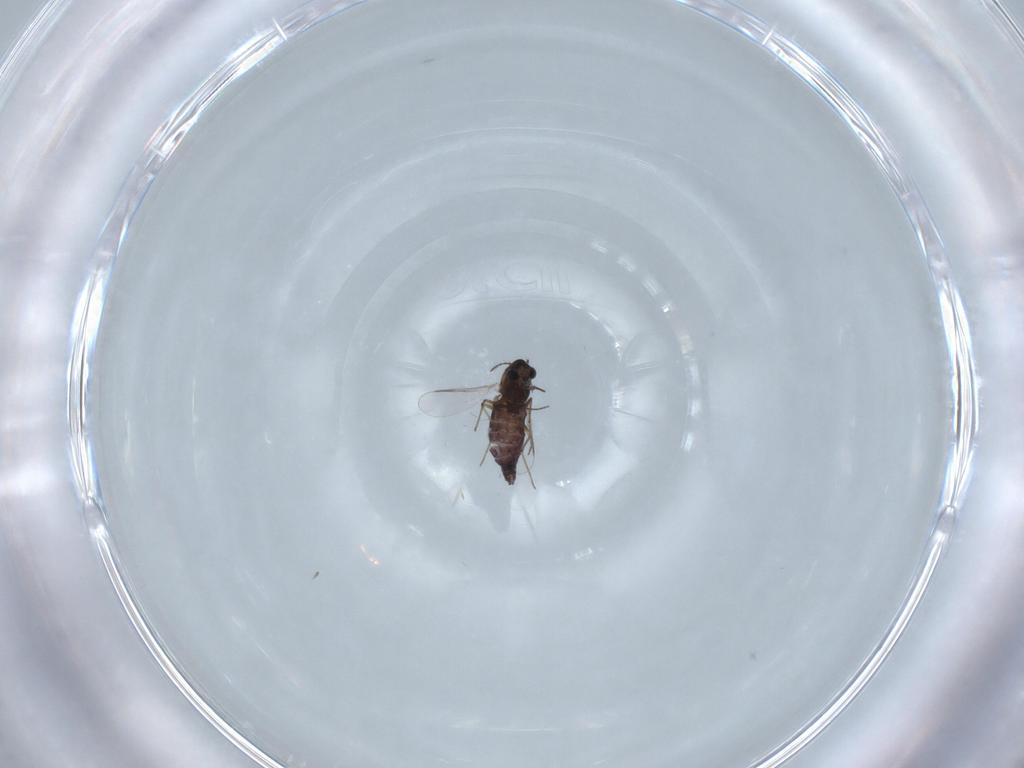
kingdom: Animalia
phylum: Arthropoda
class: Insecta
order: Diptera
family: Chironomidae
